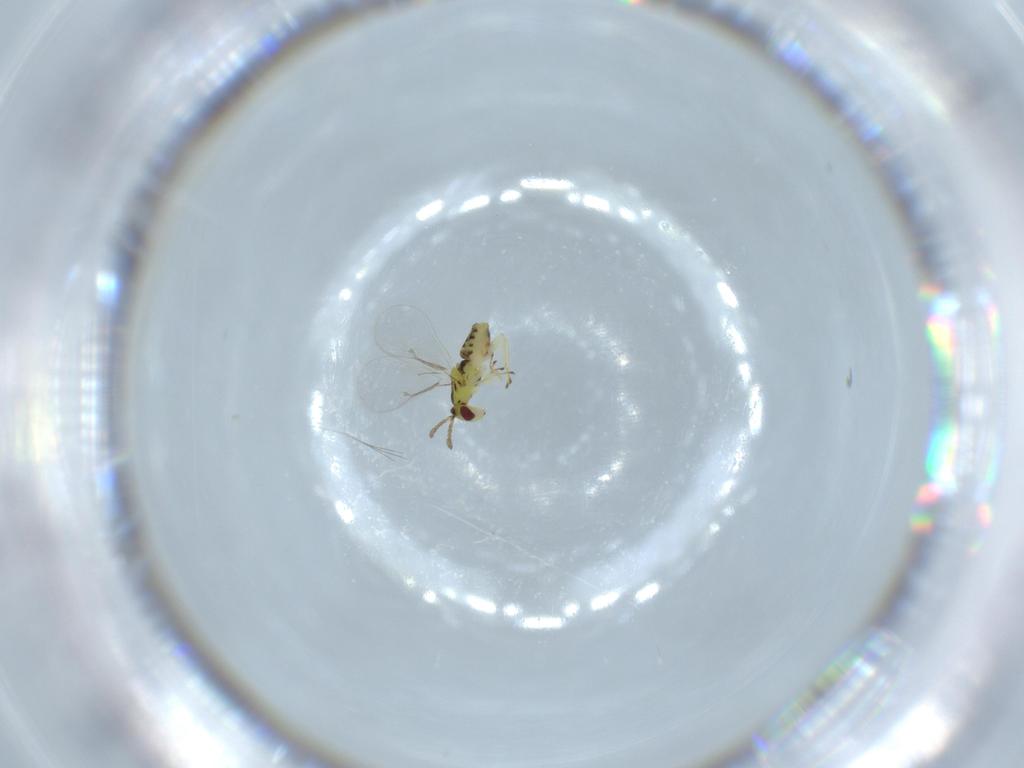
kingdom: Animalia
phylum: Arthropoda
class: Insecta
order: Hymenoptera
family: Eulophidae
